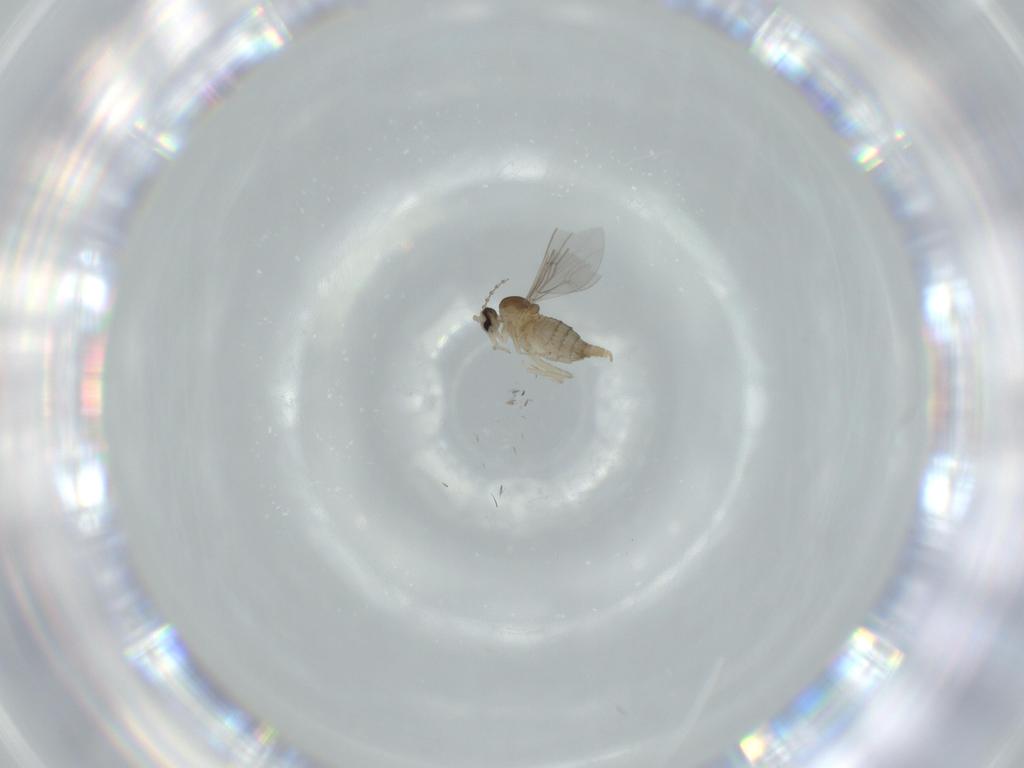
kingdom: Animalia
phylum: Arthropoda
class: Insecta
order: Diptera
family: Cecidomyiidae
